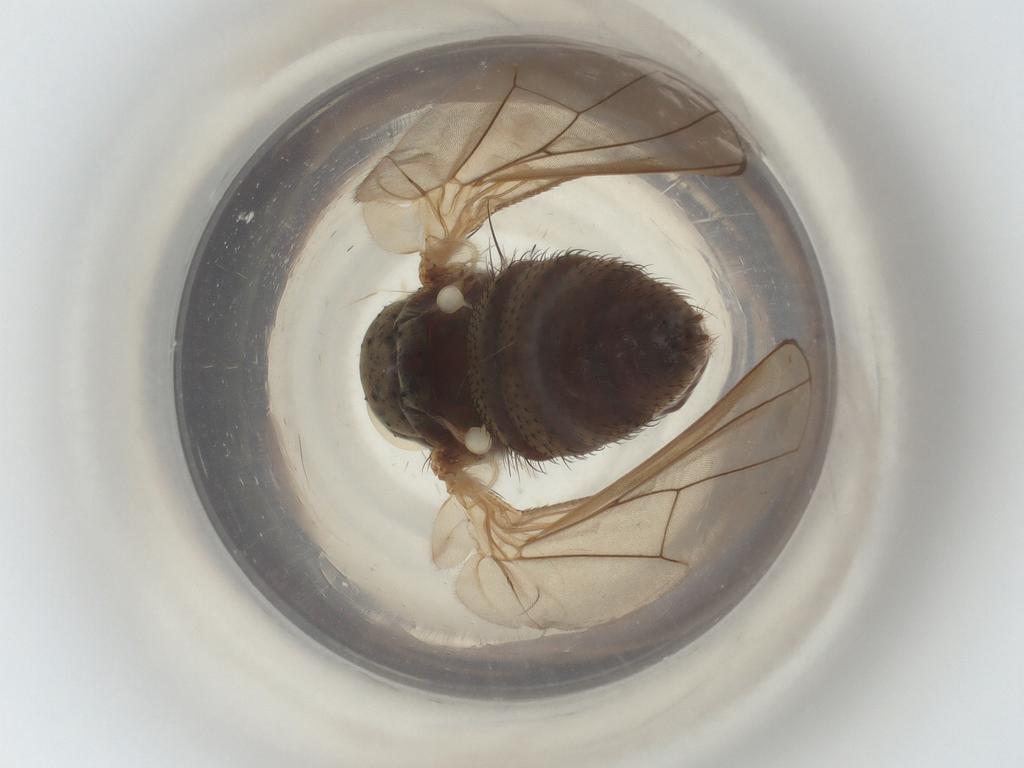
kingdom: Animalia
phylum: Arthropoda
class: Insecta
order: Diptera
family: Anthomyiidae
